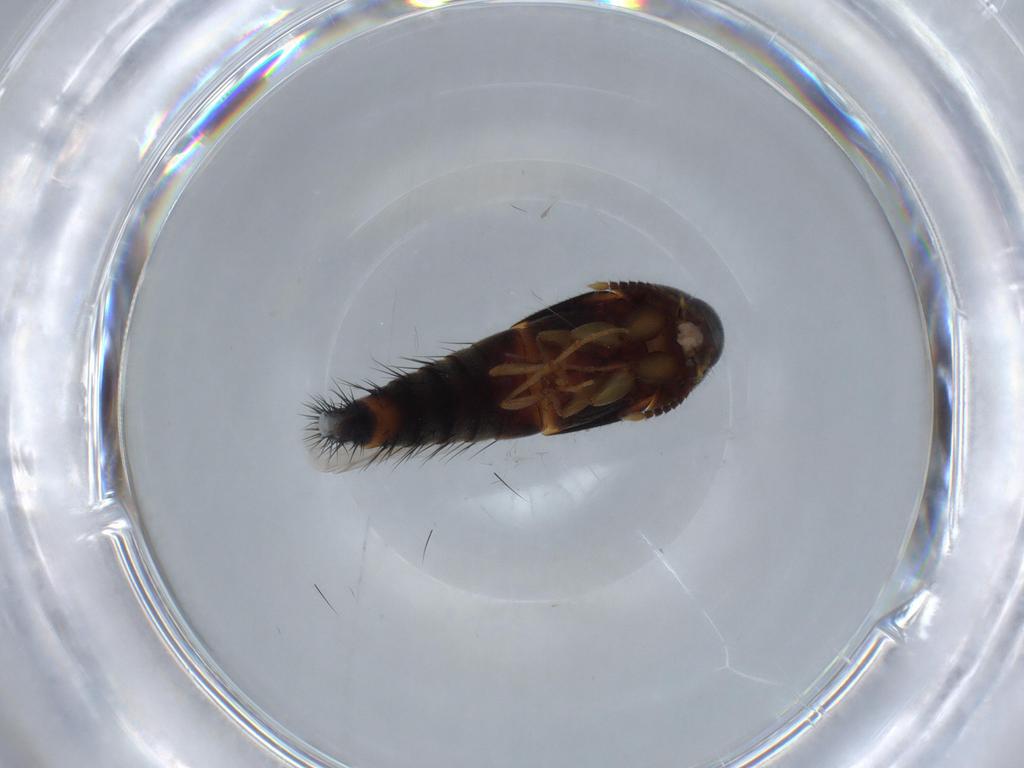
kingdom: Animalia
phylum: Arthropoda
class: Insecta
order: Coleoptera
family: Staphylinidae
